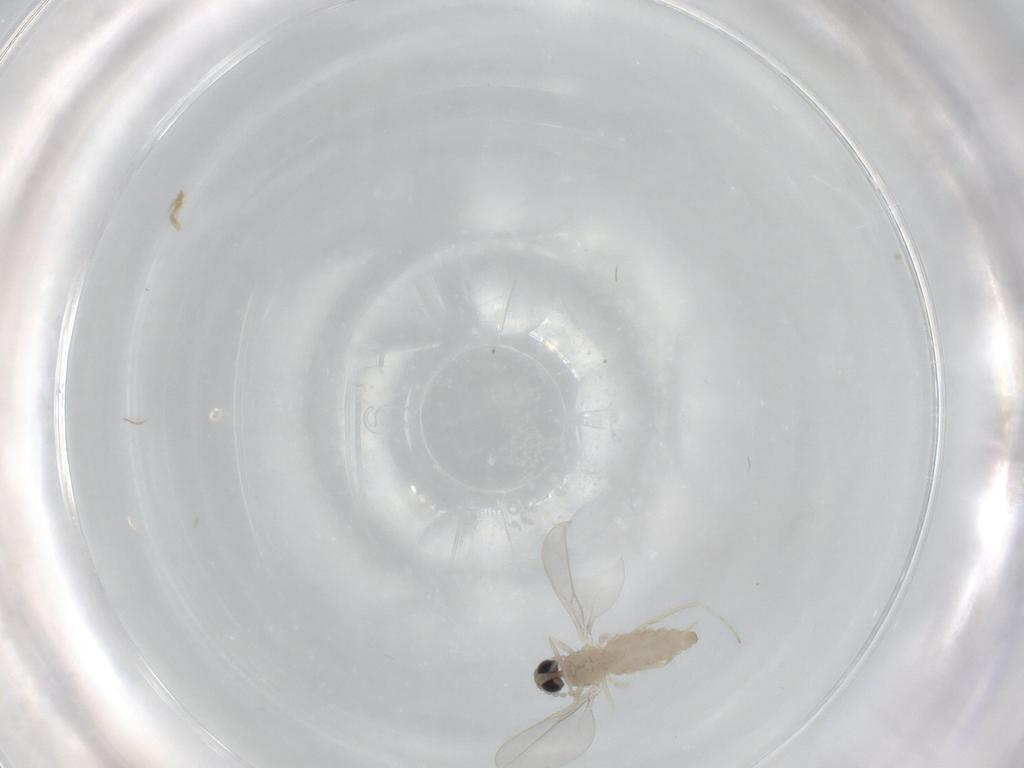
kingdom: Animalia
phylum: Arthropoda
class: Insecta
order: Diptera
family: Cecidomyiidae
